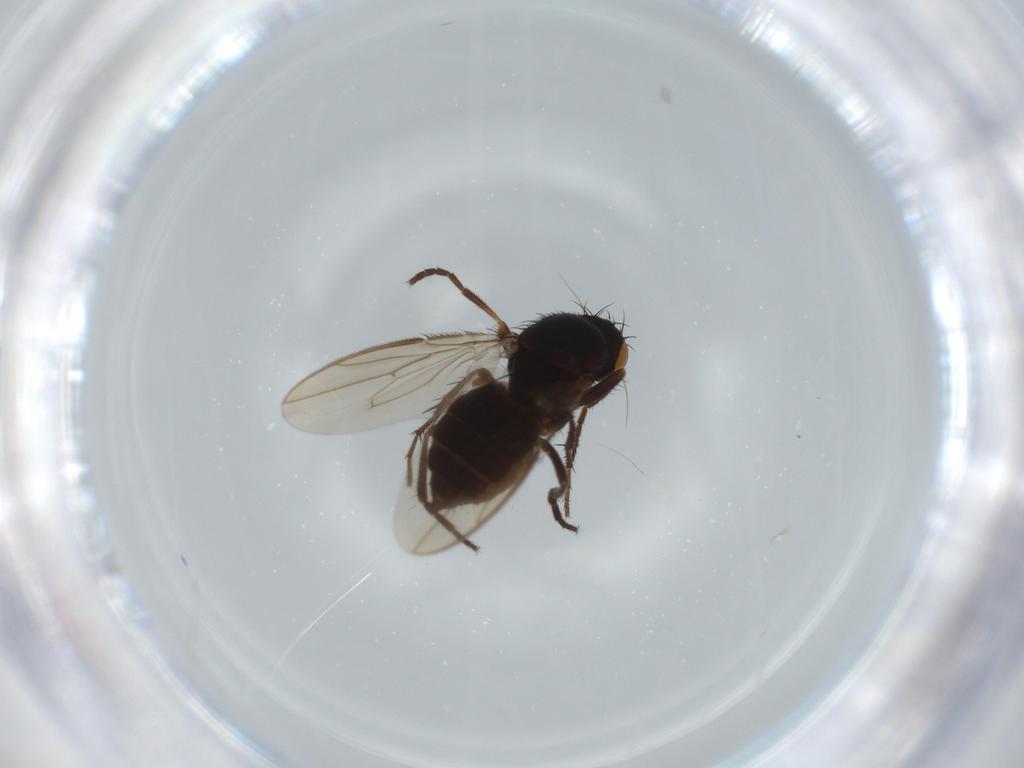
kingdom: Animalia
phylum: Arthropoda
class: Insecta
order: Diptera
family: Sphaeroceridae
